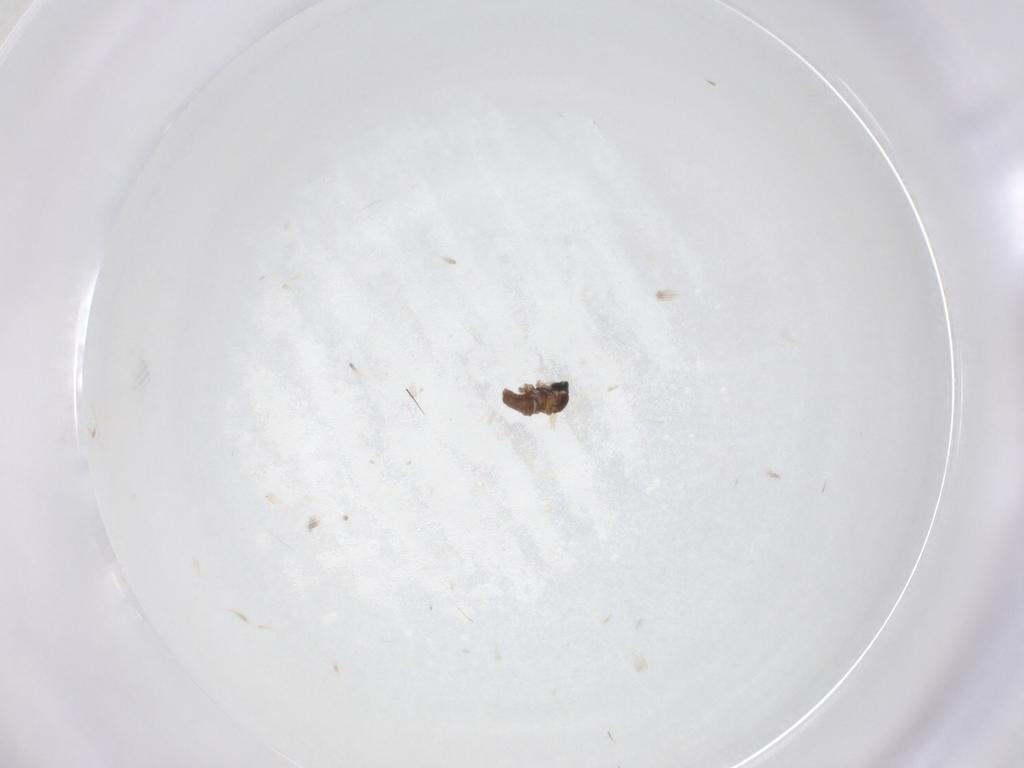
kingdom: Animalia
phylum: Arthropoda
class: Insecta
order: Diptera
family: Cecidomyiidae
